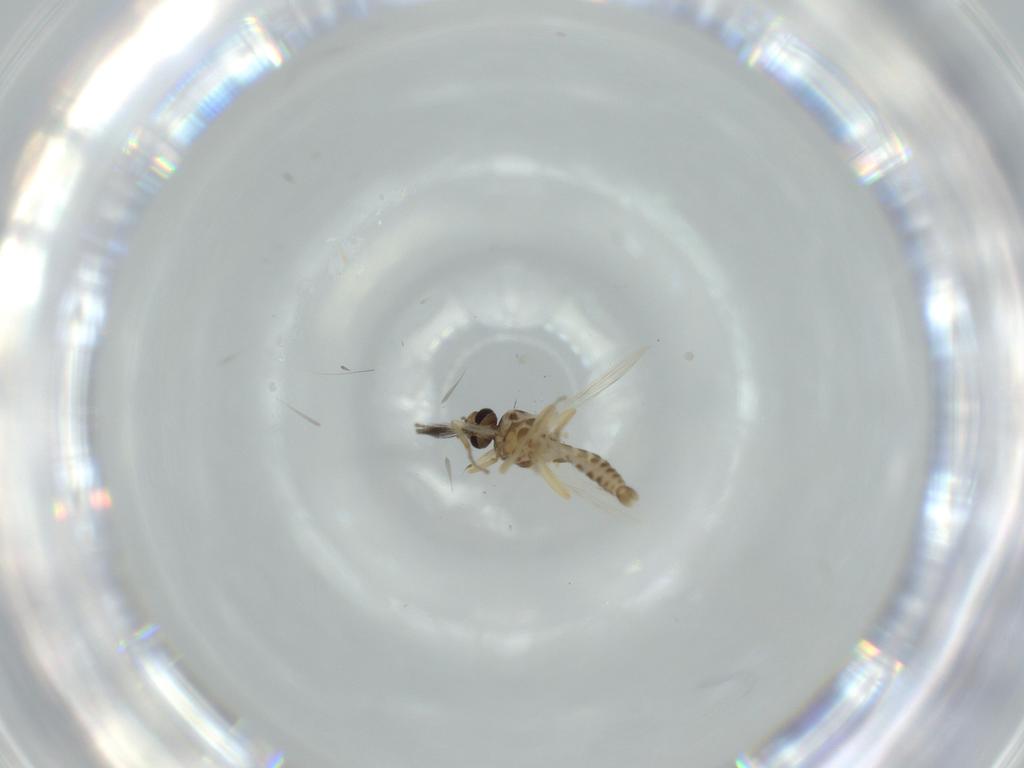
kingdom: Animalia
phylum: Arthropoda
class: Insecta
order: Diptera
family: Ceratopogonidae
